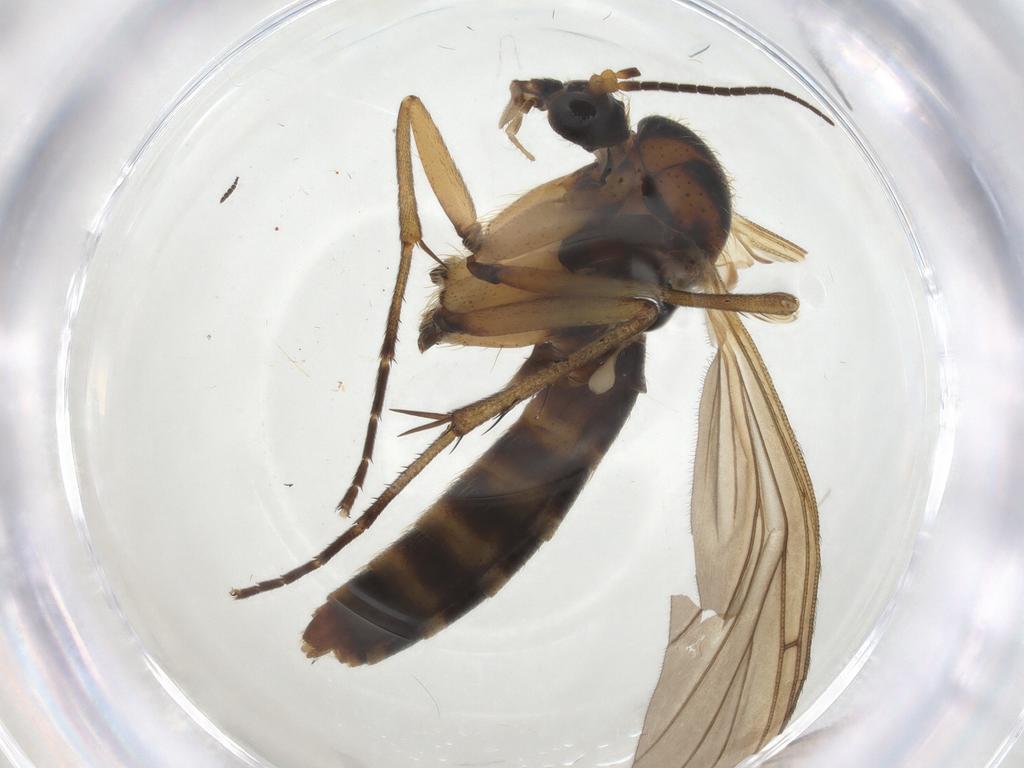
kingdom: Animalia
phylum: Arthropoda
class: Insecta
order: Diptera
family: Mycetophilidae
